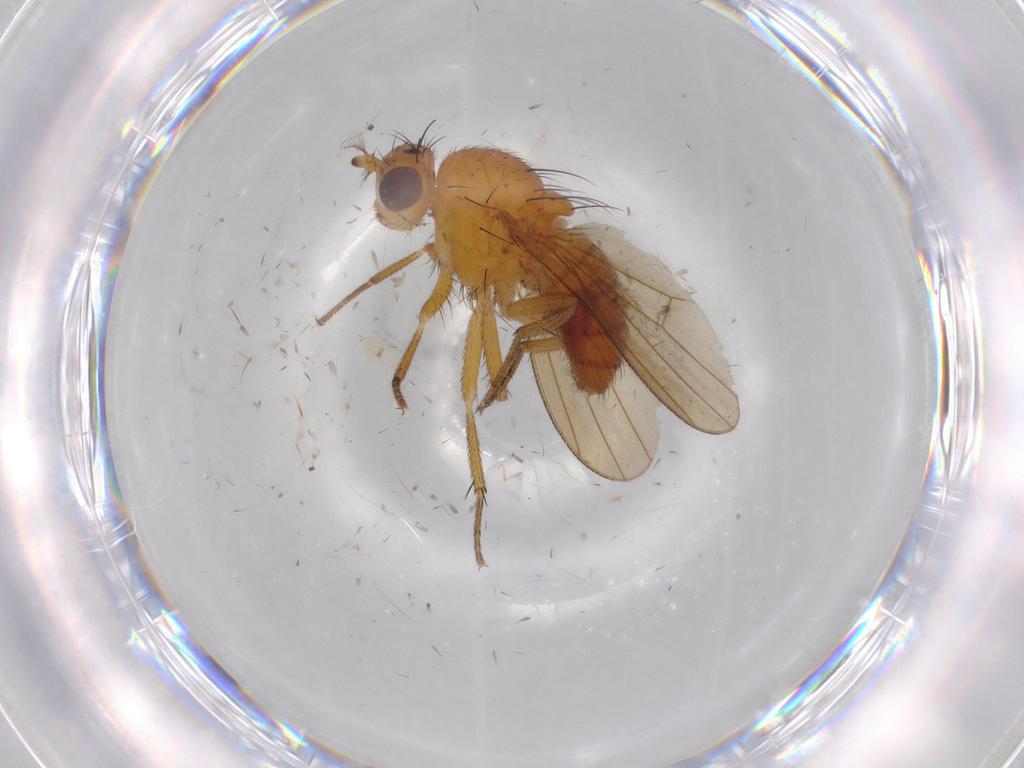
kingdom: Animalia
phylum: Arthropoda
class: Insecta
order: Diptera
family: Lauxaniidae
